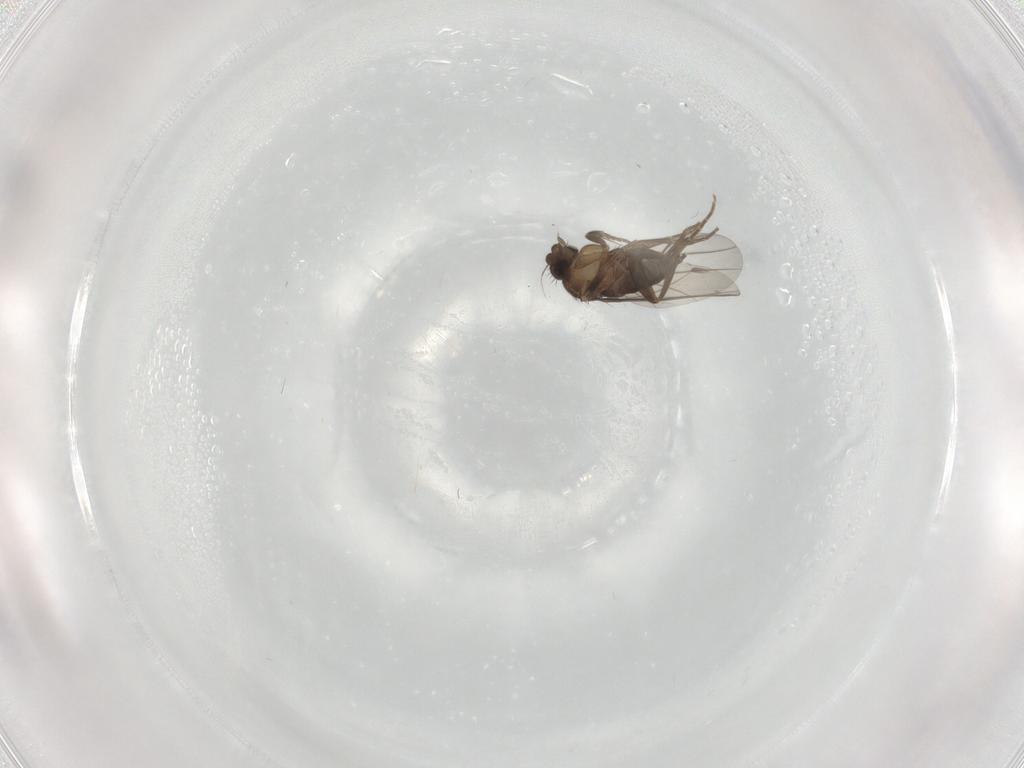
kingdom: Animalia
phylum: Arthropoda
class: Insecta
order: Diptera
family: Phoridae
